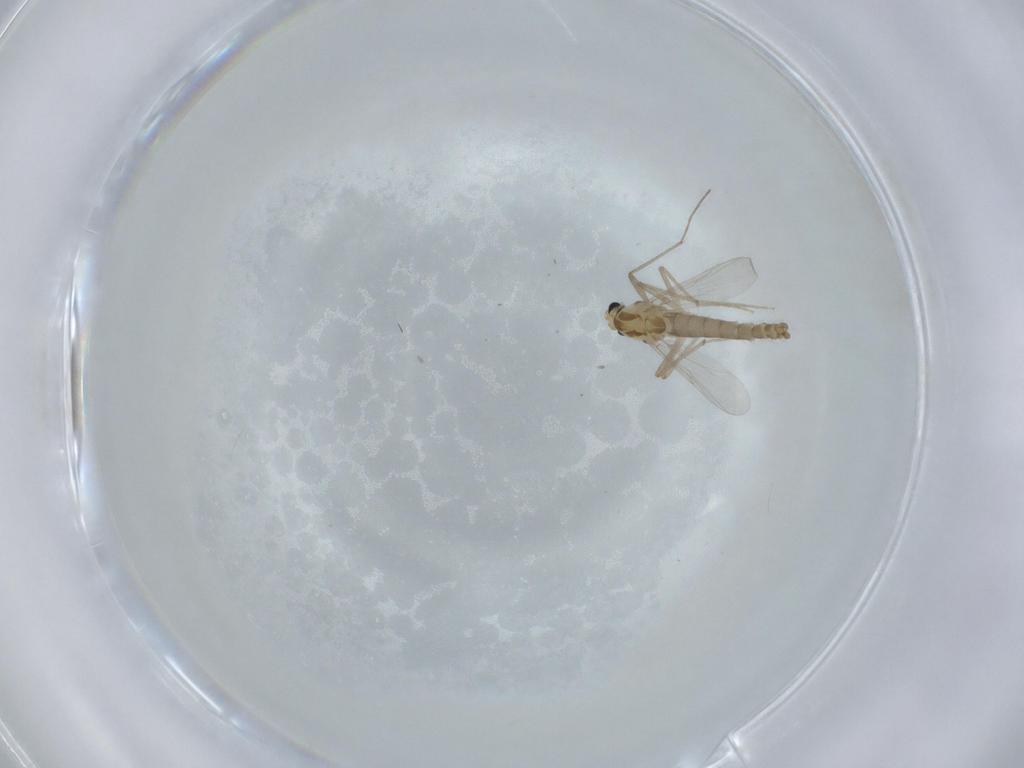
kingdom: Animalia
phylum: Arthropoda
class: Insecta
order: Diptera
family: Chironomidae
